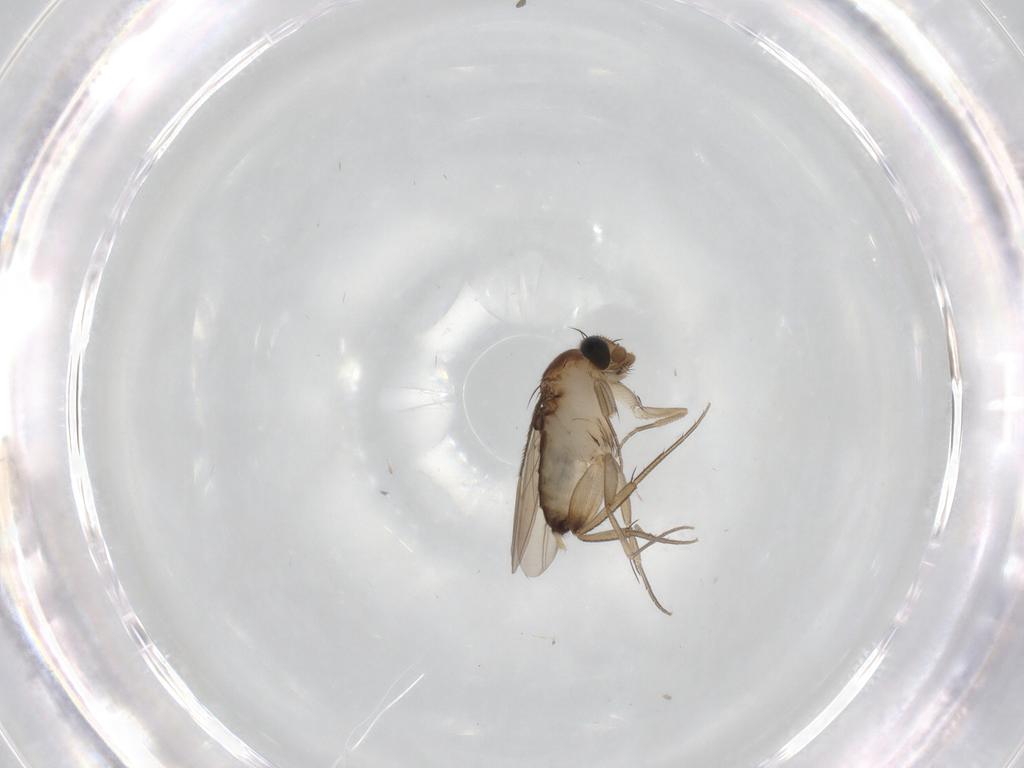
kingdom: Animalia
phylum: Arthropoda
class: Insecta
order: Diptera
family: Phoridae
